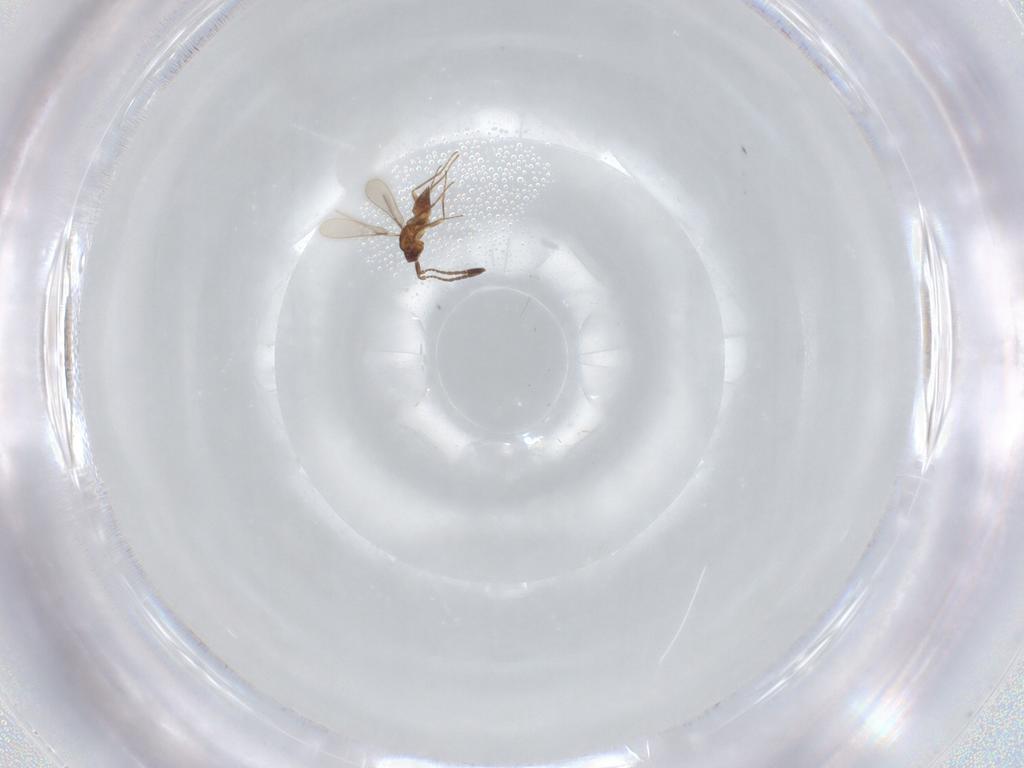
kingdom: Animalia
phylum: Arthropoda
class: Insecta
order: Hymenoptera
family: Mymaridae
